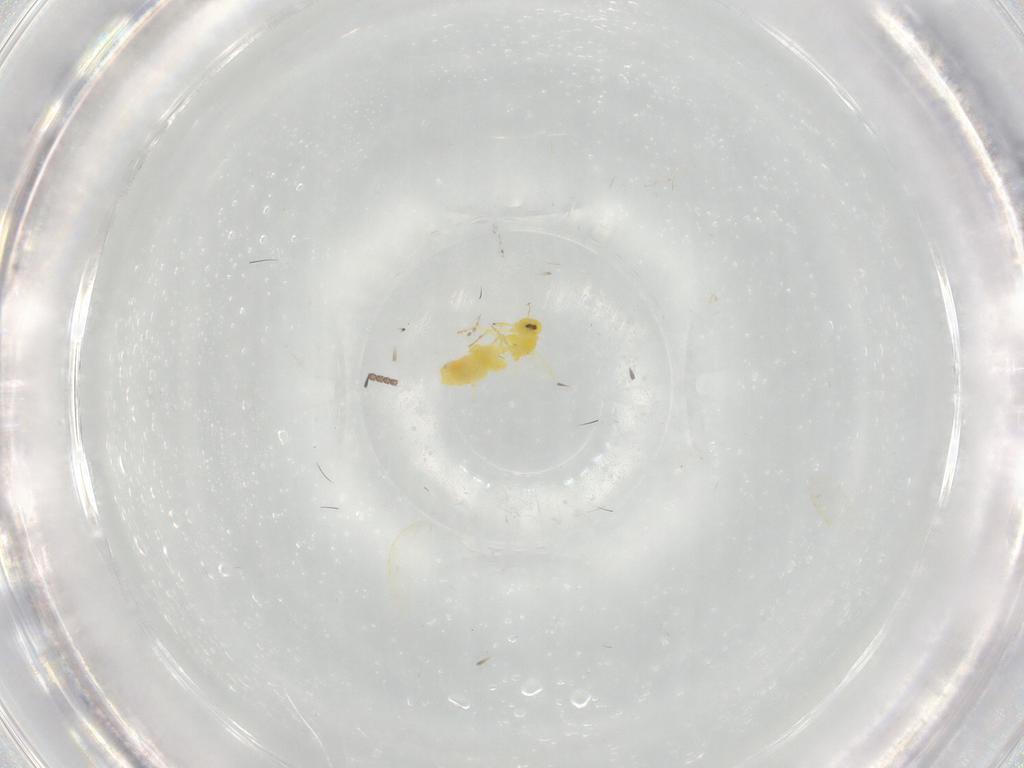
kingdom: Animalia
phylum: Arthropoda
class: Insecta
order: Hemiptera
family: Aleyrodidae
